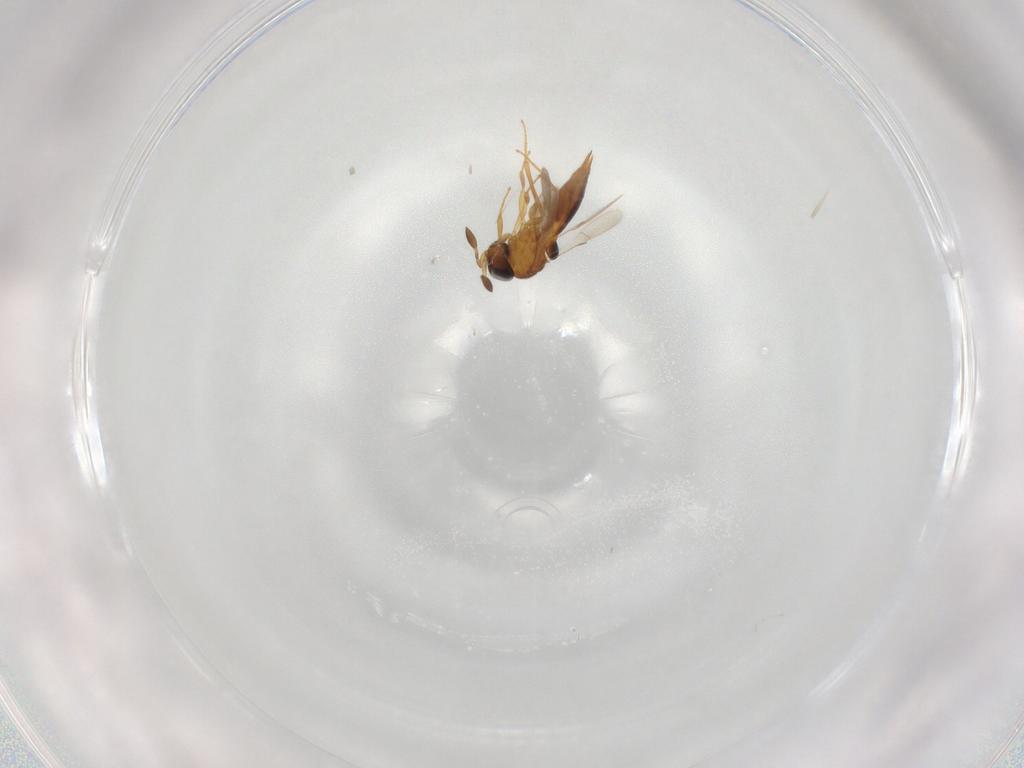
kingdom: Animalia
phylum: Arthropoda
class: Insecta
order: Hymenoptera
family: Scelionidae
